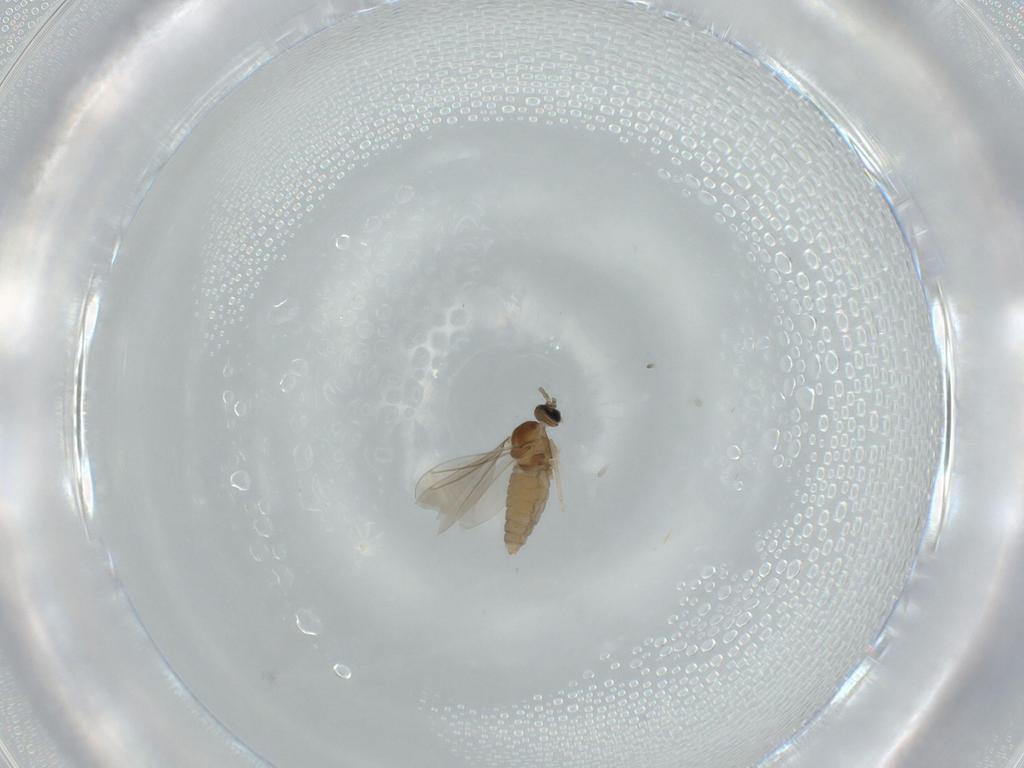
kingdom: Animalia
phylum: Arthropoda
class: Insecta
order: Diptera
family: Cecidomyiidae
